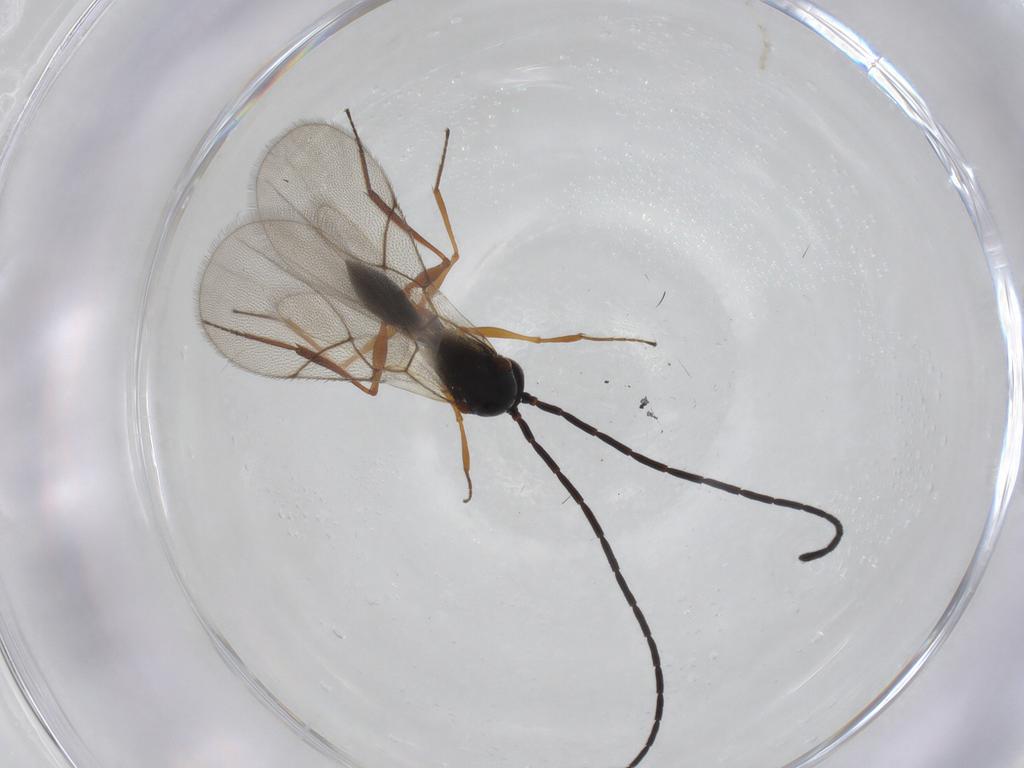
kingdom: Animalia
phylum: Arthropoda
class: Insecta
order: Hymenoptera
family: Figitidae
